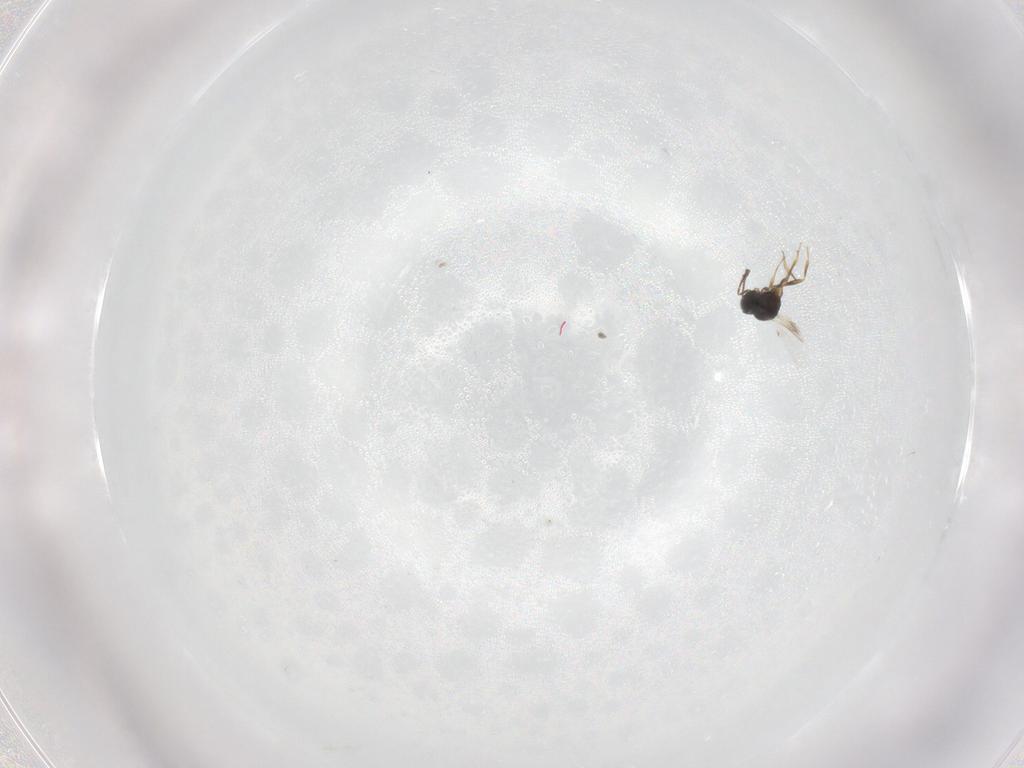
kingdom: Animalia
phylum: Arthropoda
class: Insecta
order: Hymenoptera
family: Scelionidae
